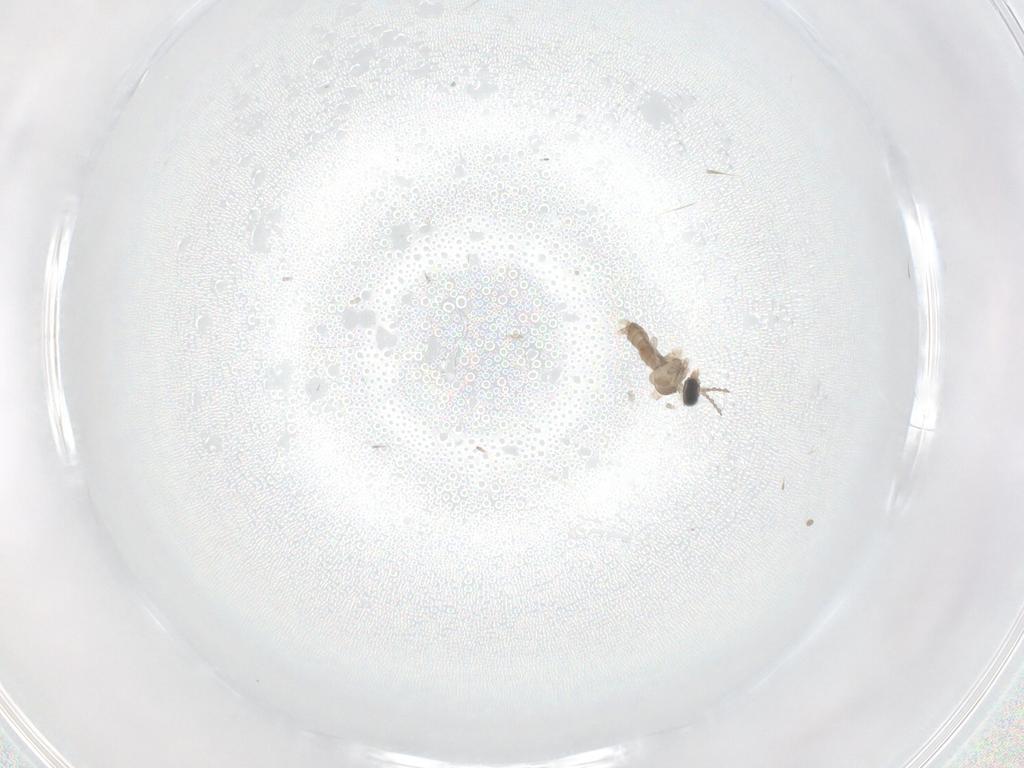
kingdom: Animalia
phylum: Arthropoda
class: Insecta
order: Diptera
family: Cecidomyiidae
